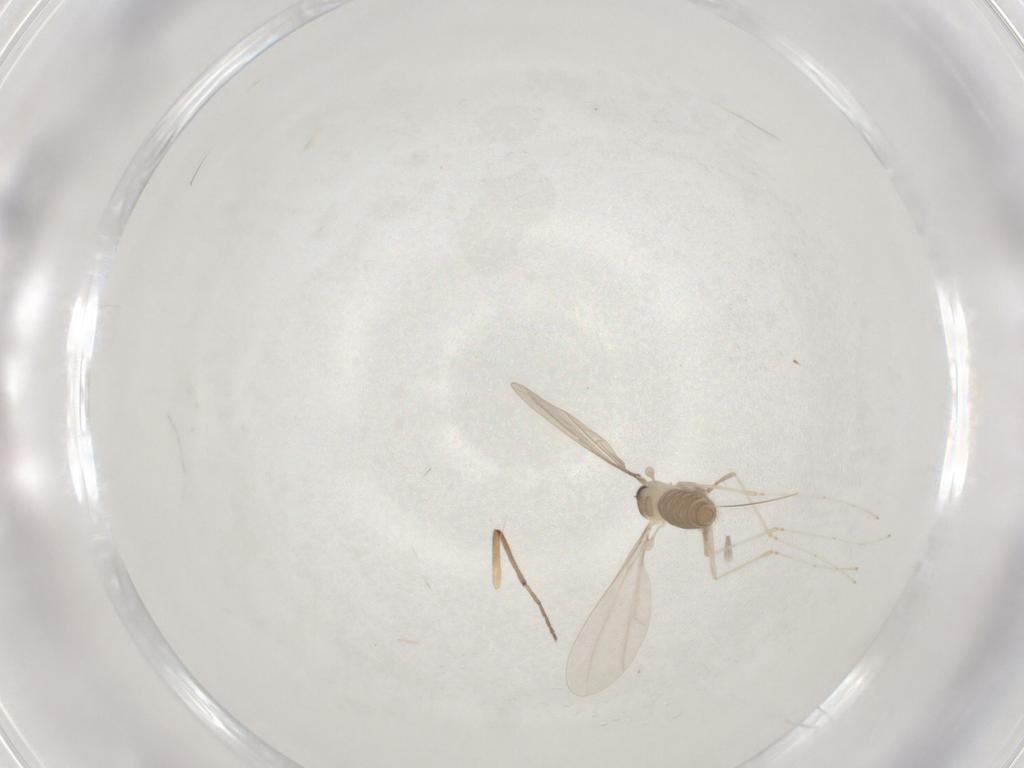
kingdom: Animalia
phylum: Arthropoda
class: Insecta
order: Diptera
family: Cecidomyiidae
